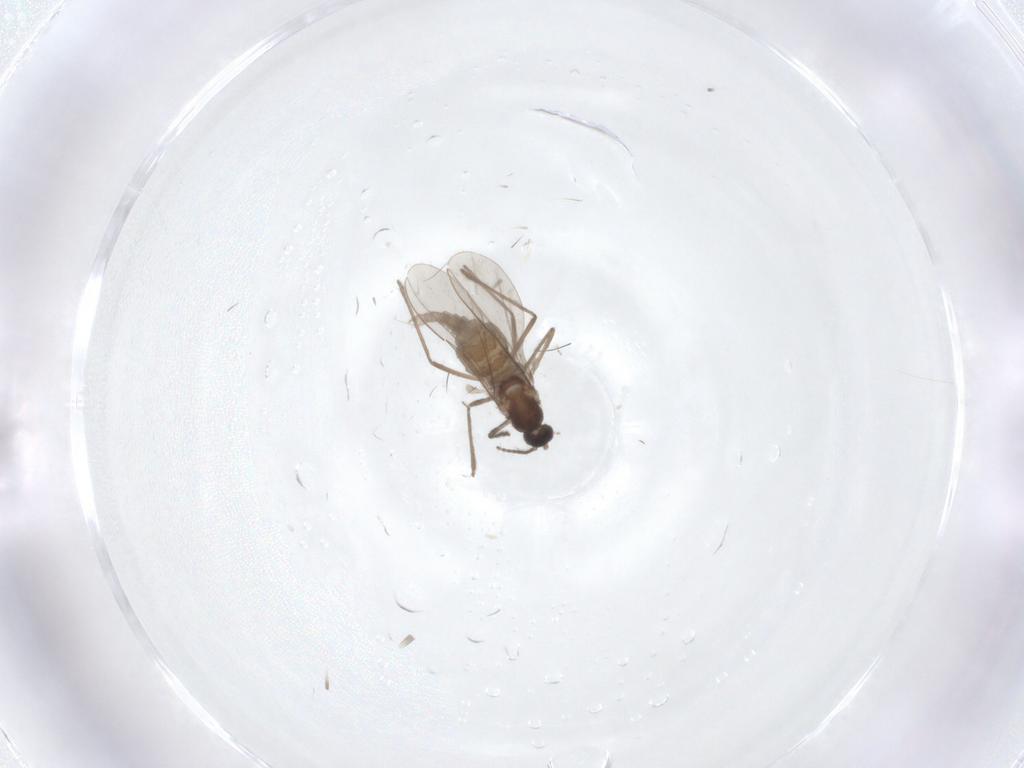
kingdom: Animalia
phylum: Arthropoda
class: Insecta
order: Diptera
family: Cecidomyiidae
